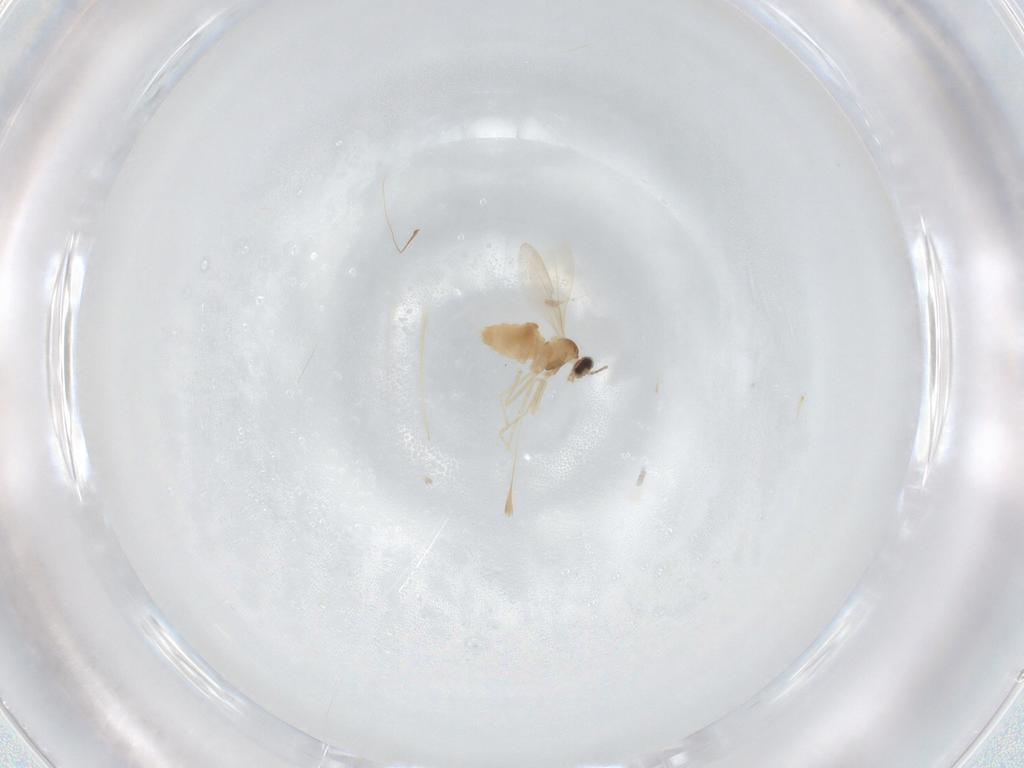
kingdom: Animalia
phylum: Arthropoda
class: Insecta
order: Diptera
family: Cecidomyiidae
